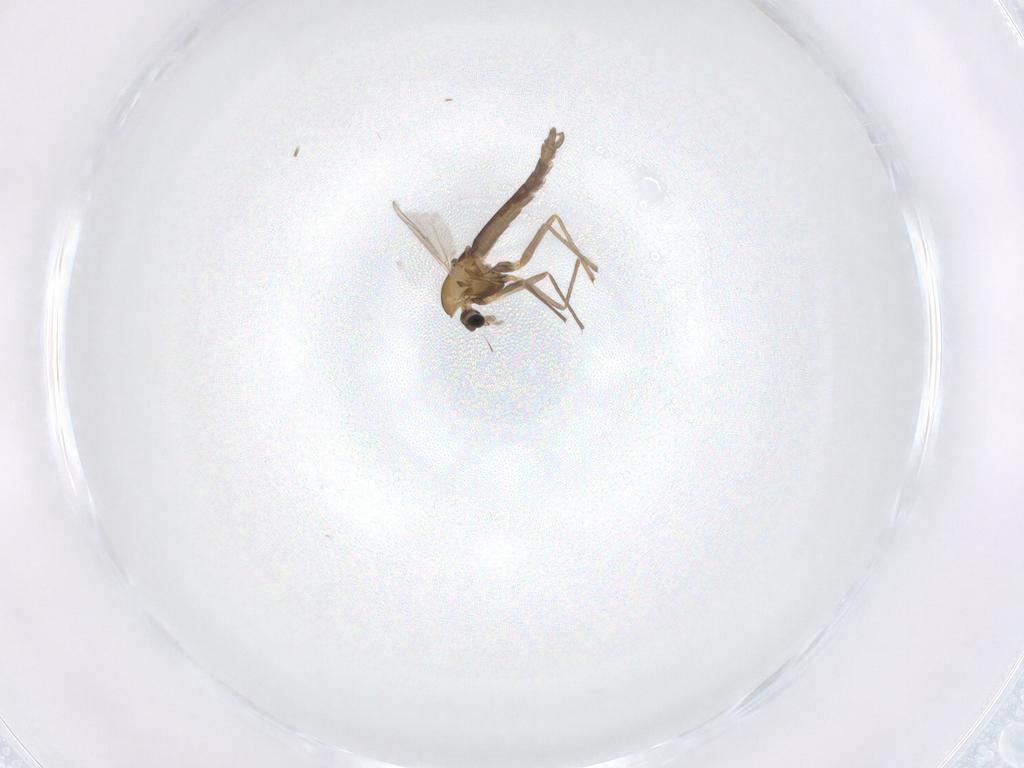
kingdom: Animalia
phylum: Arthropoda
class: Insecta
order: Diptera
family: Chironomidae
